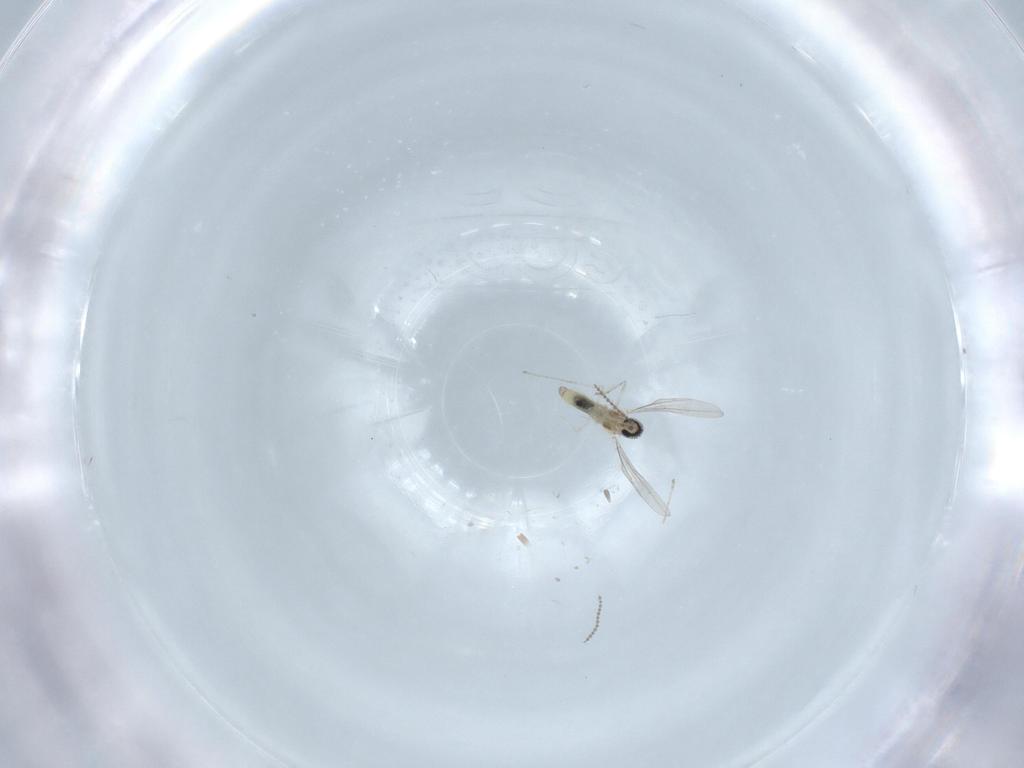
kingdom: Animalia
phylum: Arthropoda
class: Insecta
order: Diptera
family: Cecidomyiidae
